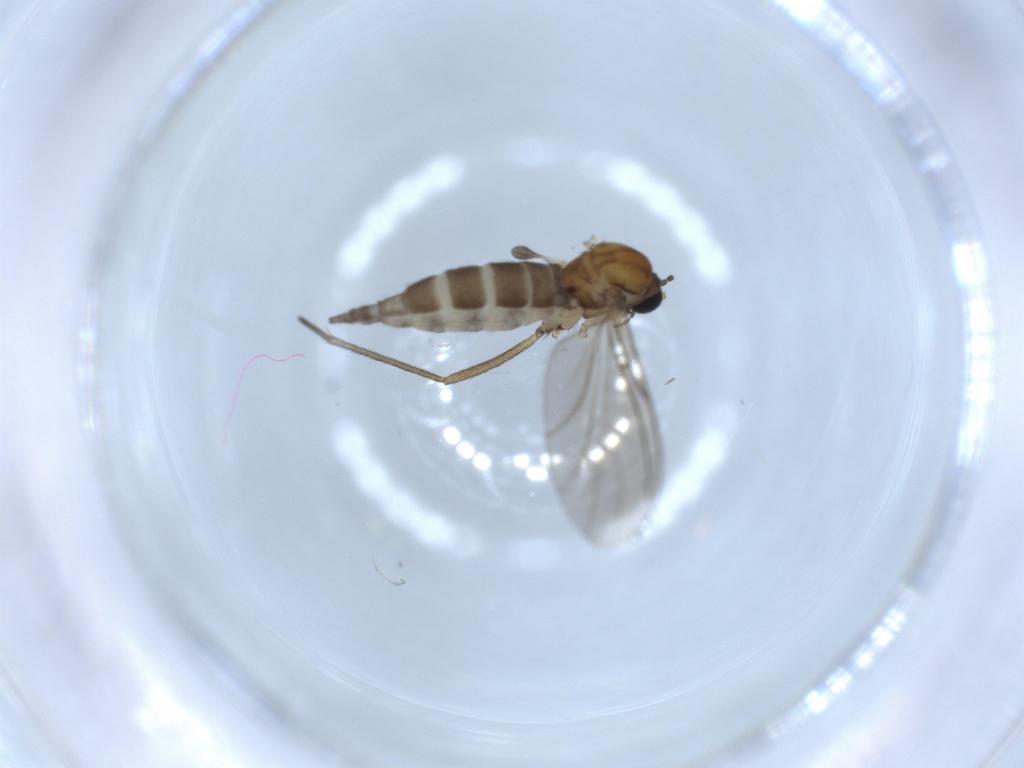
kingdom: Animalia
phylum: Arthropoda
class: Insecta
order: Diptera
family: Sciaridae
